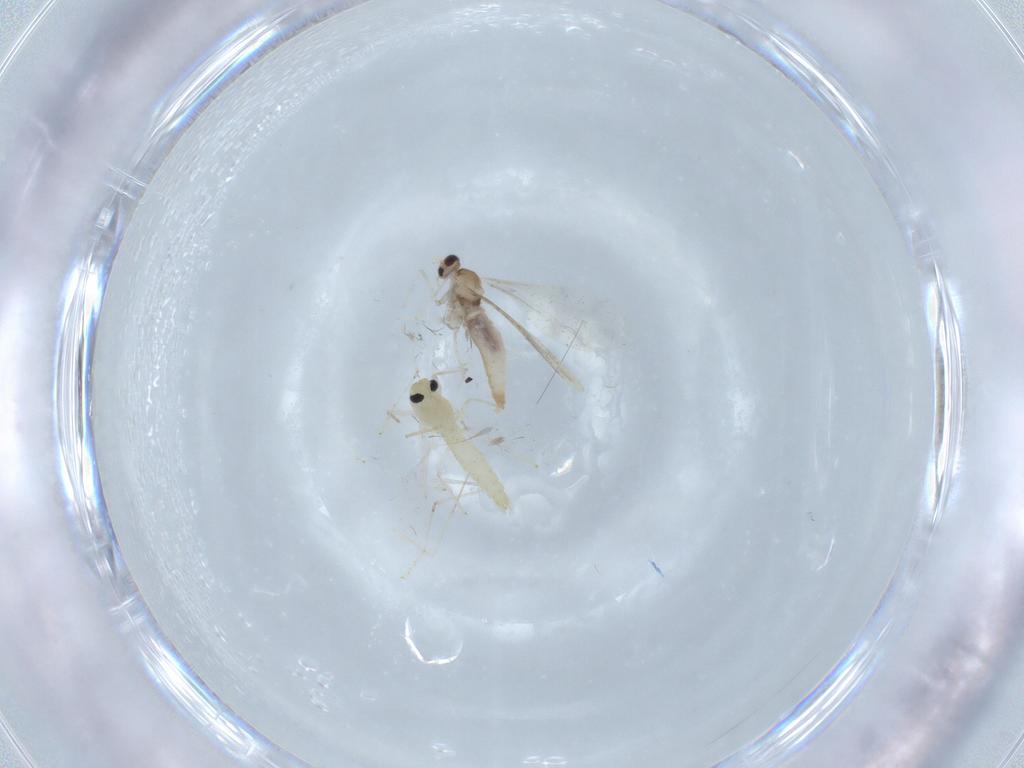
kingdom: Animalia
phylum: Arthropoda
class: Insecta
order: Diptera
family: Chironomidae
